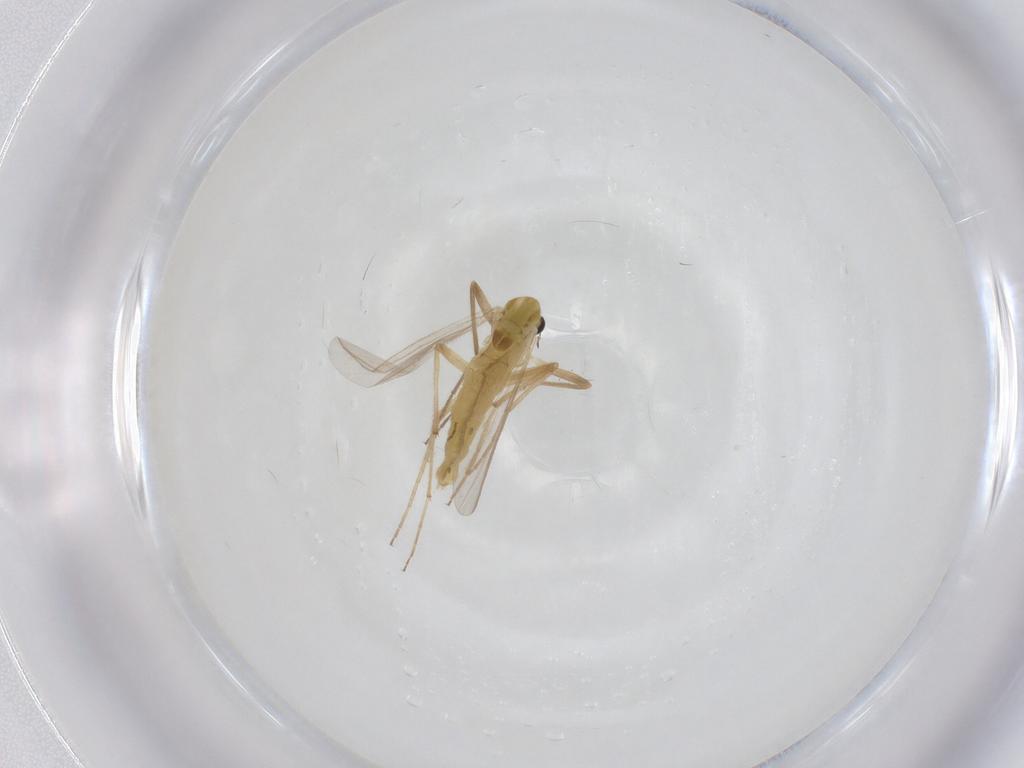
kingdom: Animalia
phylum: Arthropoda
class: Insecta
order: Diptera
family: Chironomidae
